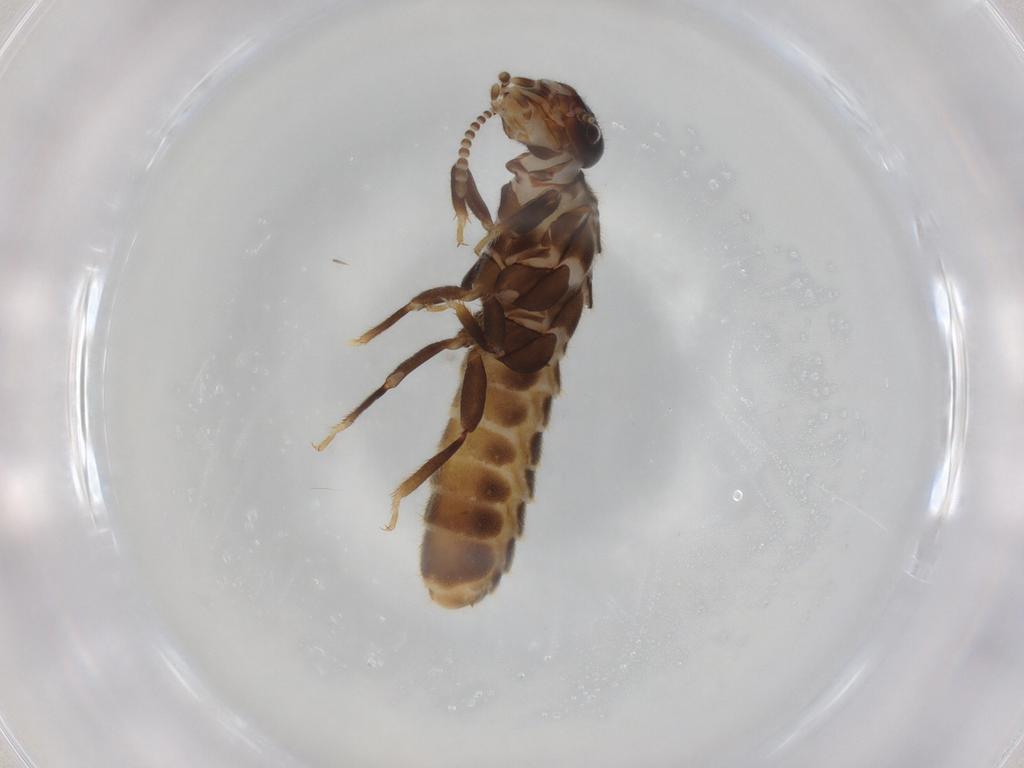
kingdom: Animalia
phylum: Arthropoda
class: Insecta
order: Blattodea
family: Termitidae
